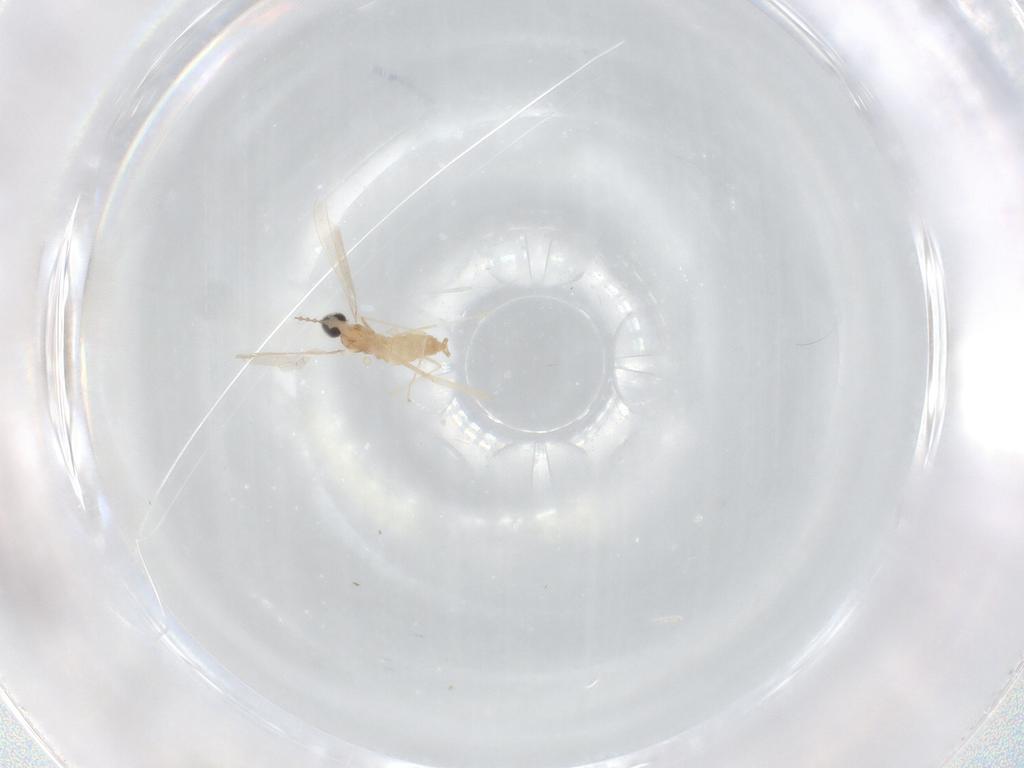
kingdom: Animalia
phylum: Arthropoda
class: Insecta
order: Diptera
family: Cecidomyiidae
